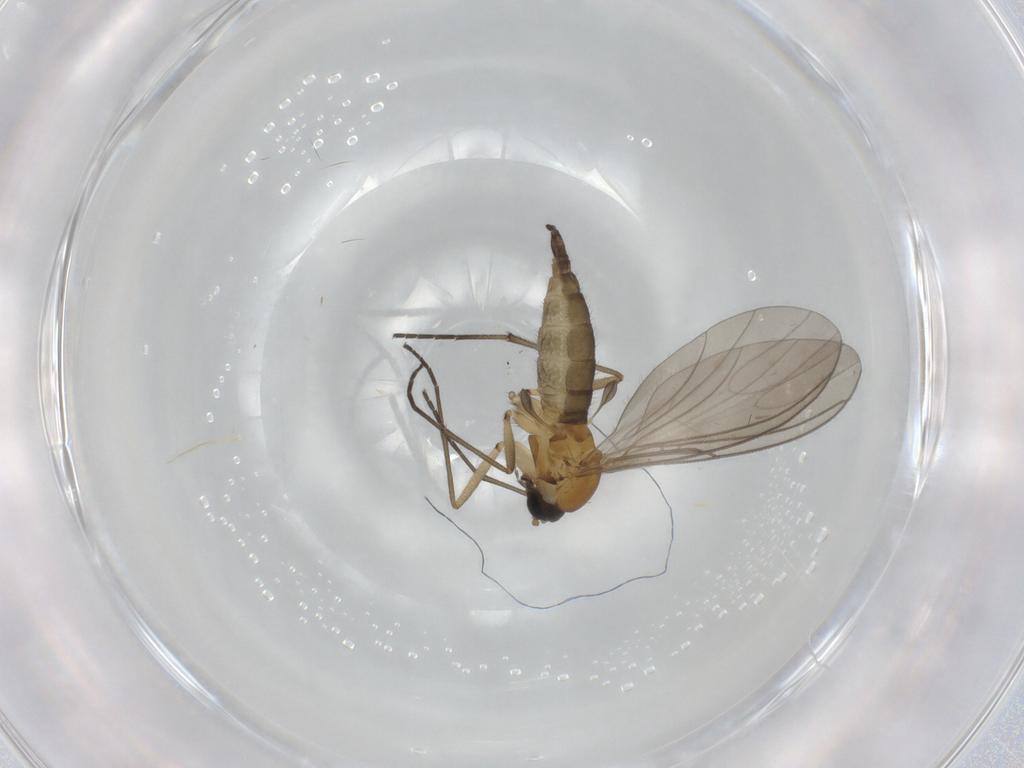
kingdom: Animalia
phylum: Arthropoda
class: Insecta
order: Diptera
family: Sciaridae
